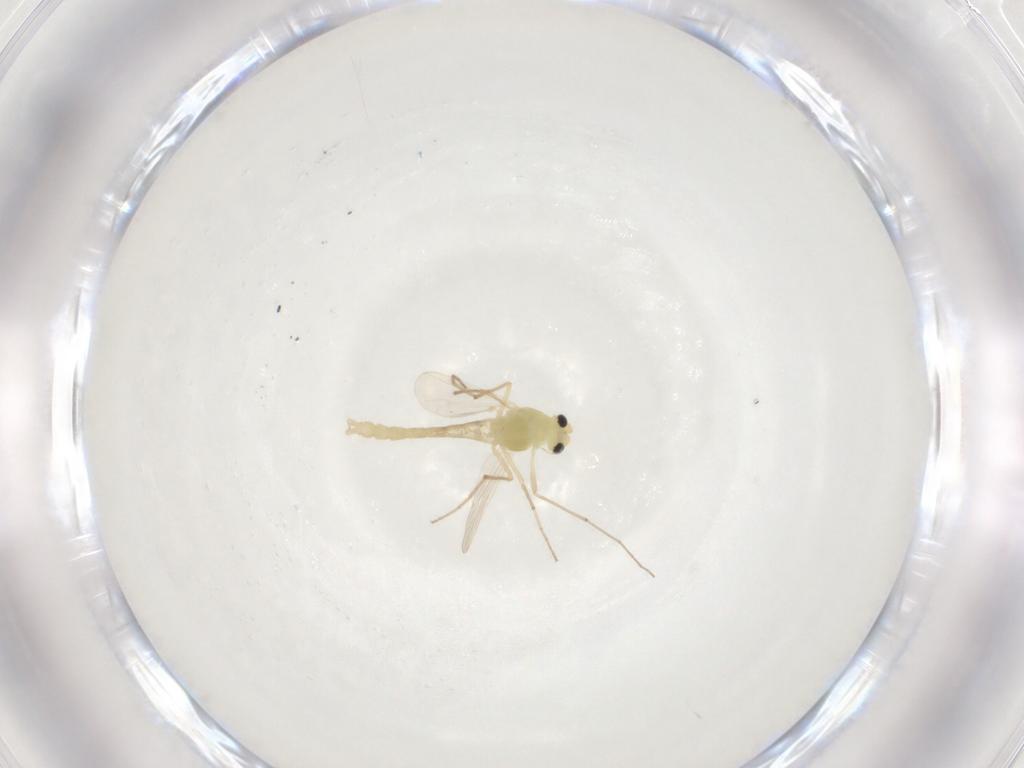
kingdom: Animalia
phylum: Arthropoda
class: Insecta
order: Diptera
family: Chironomidae
